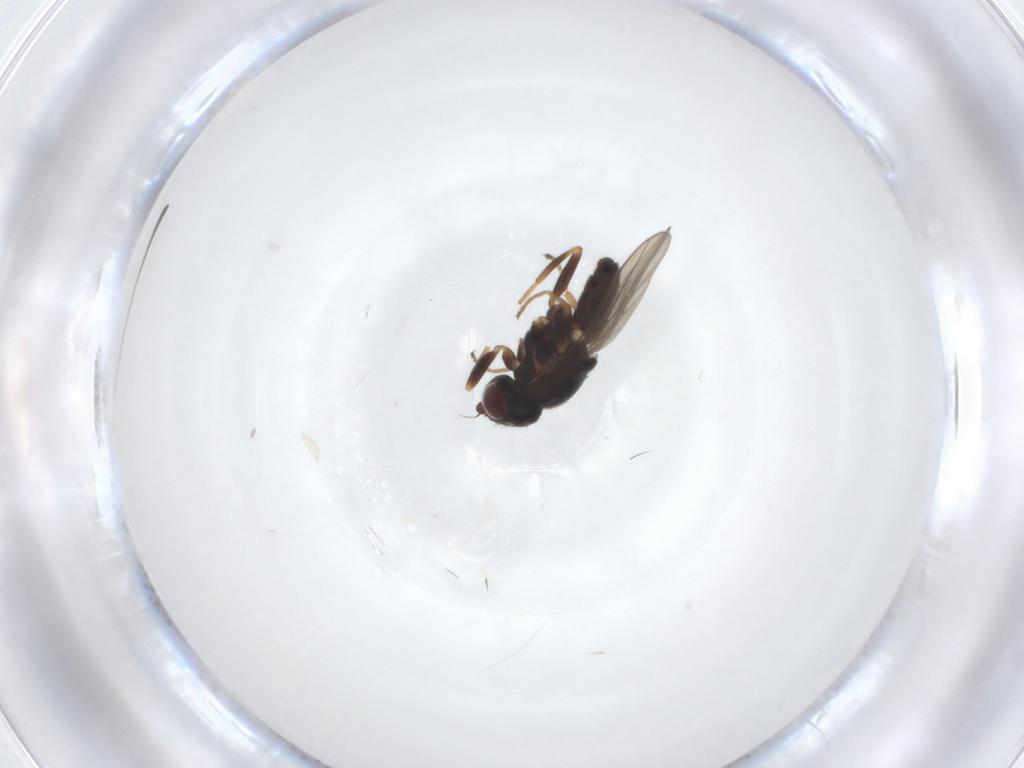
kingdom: Animalia
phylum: Arthropoda
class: Insecta
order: Diptera
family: Chloropidae
